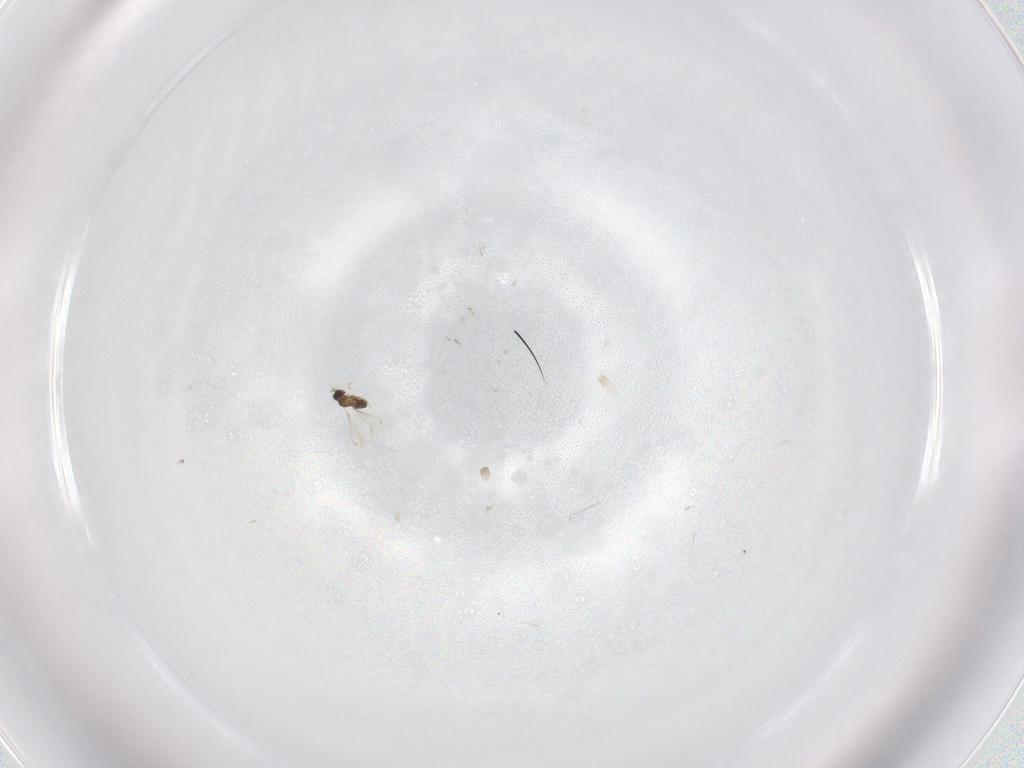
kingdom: Animalia
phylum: Arthropoda
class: Insecta
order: Hymenoptera
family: Mymaridae
